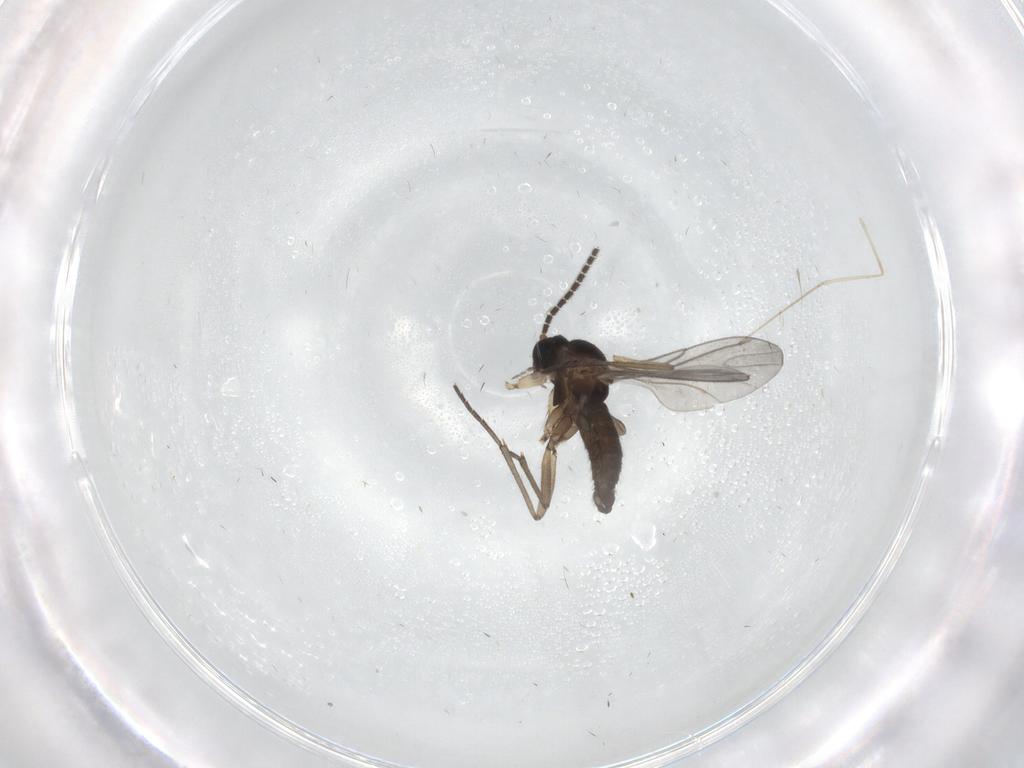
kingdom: Animalia
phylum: Arthropoda
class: Insecta
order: Diptera
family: Sciaridae
